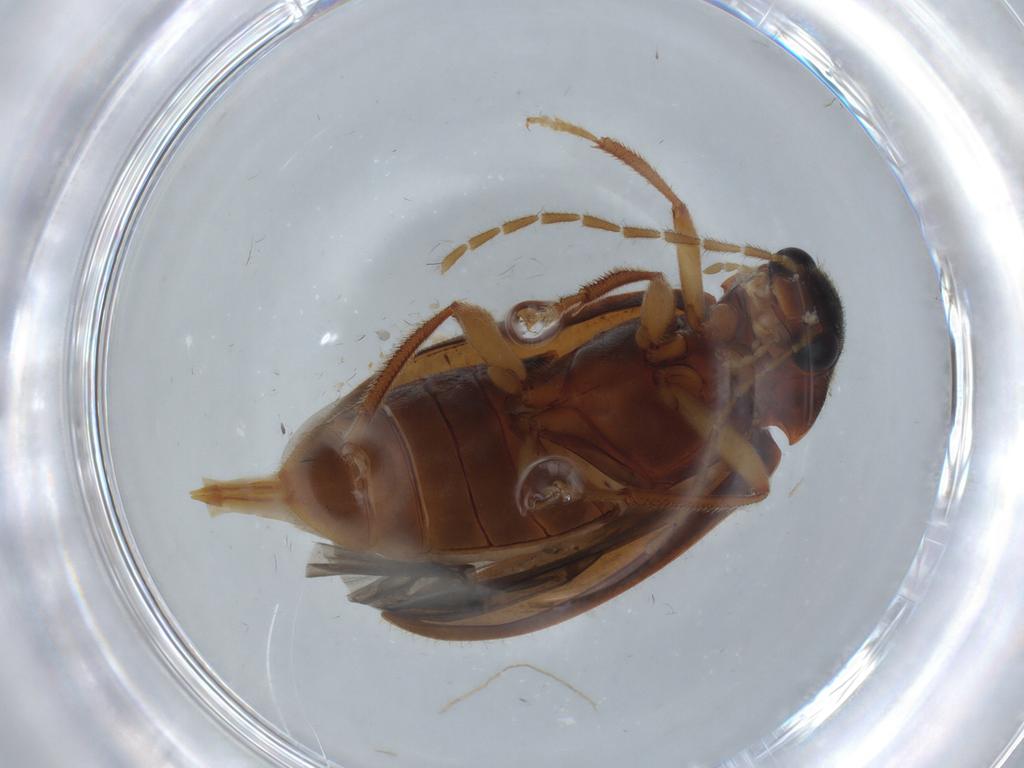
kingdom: Animalia
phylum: Arthropoda
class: Insecta
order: Coleoptera
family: Ptilodactylidae
